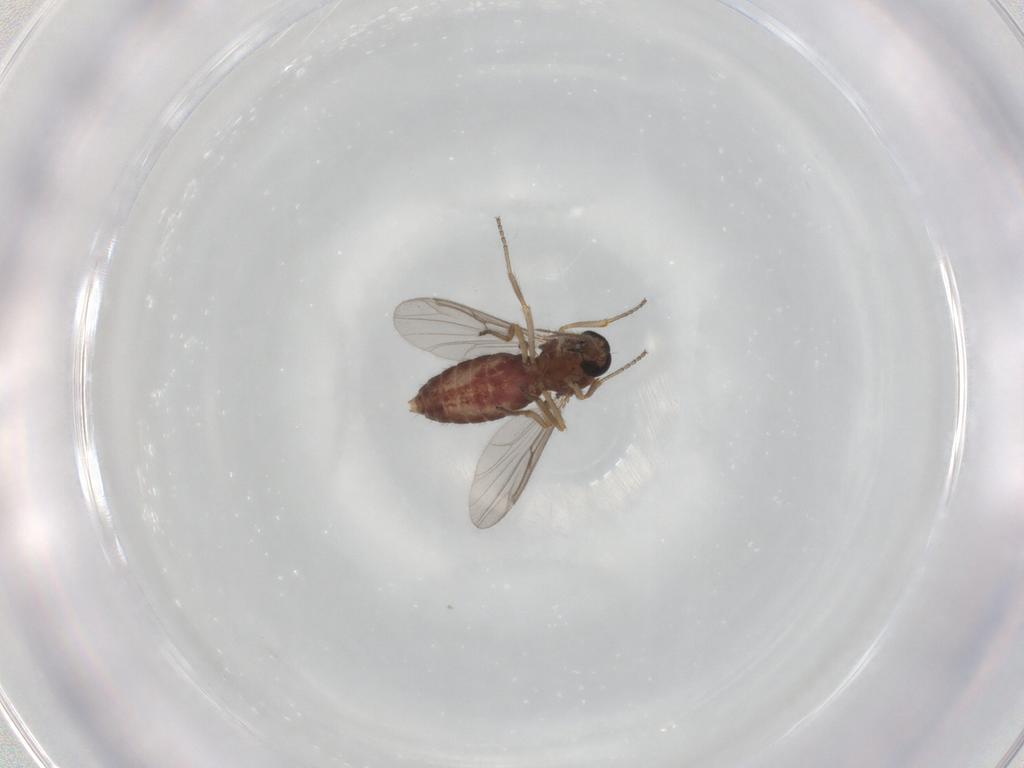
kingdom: Animalia
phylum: Arthropoda
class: Insecta
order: Diptera
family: Ceratopogonidae
